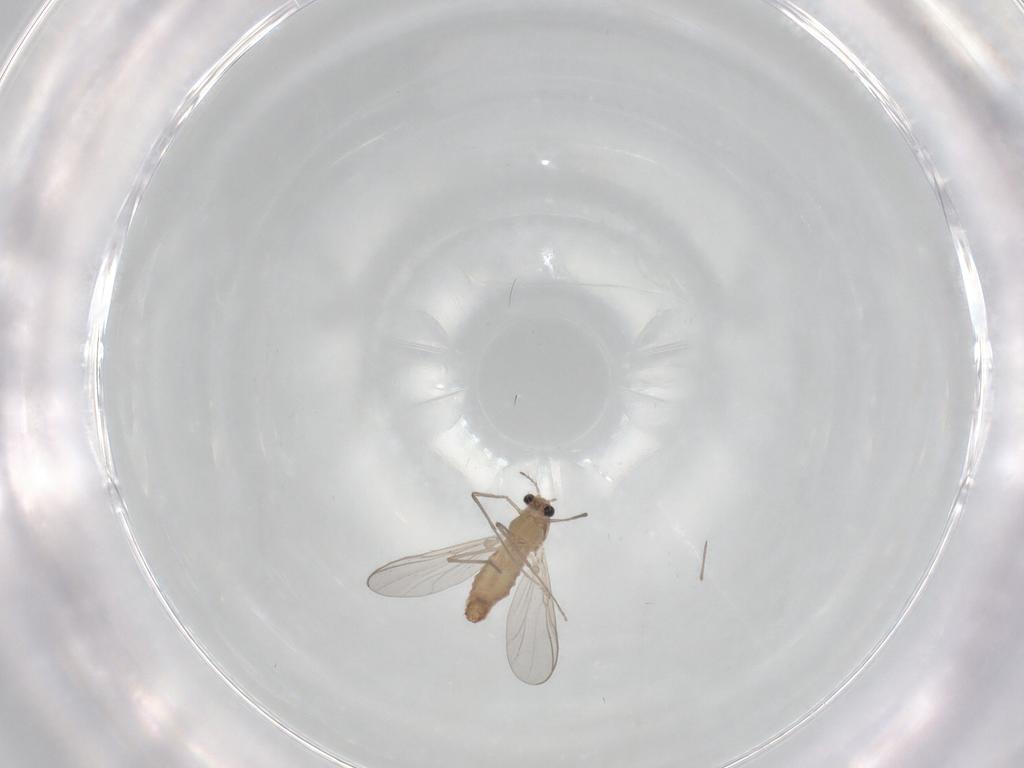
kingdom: Animalia
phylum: Arthropoda
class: Insecta
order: Diptera
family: Chironomidae
